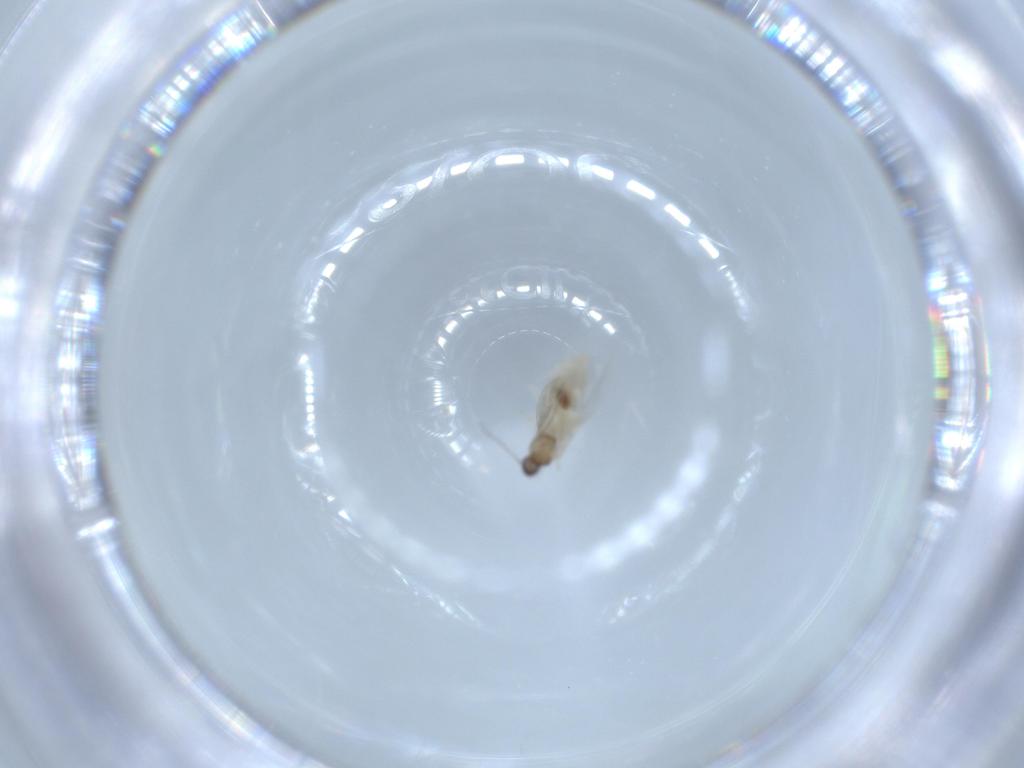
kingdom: Animalia
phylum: Arthropoda
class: Insecta
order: Diptera
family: Cecidomyiidae
